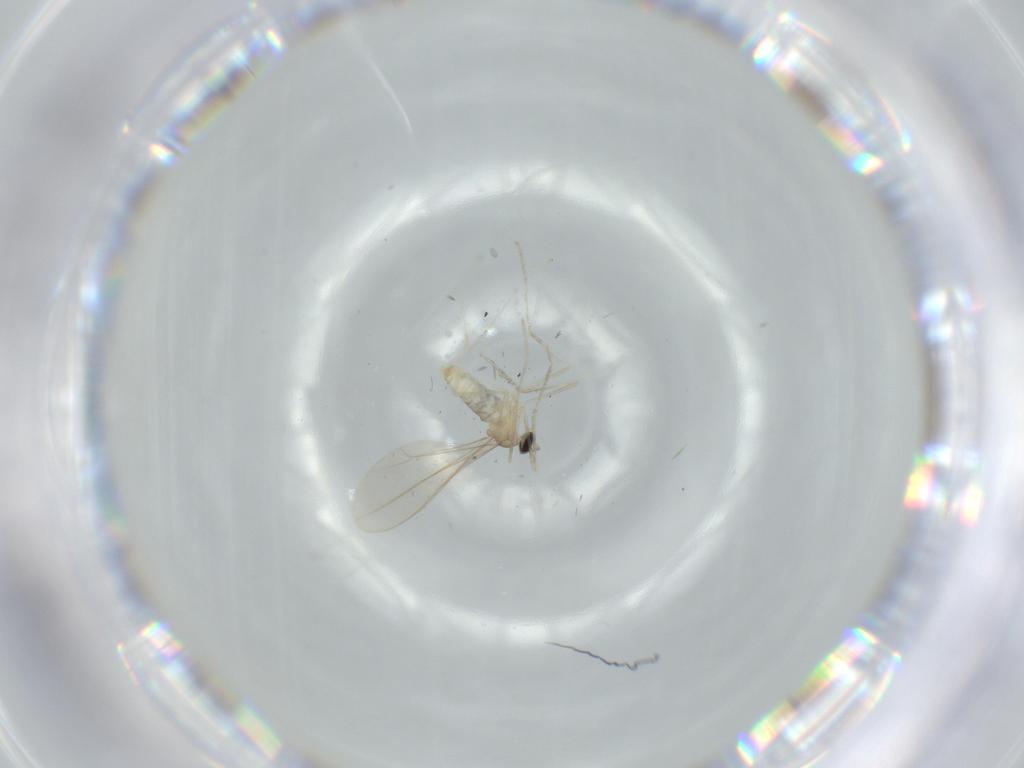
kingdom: Animalia
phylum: Arthropoda
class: Insecta
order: Diptera
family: Cecidomyiidae
